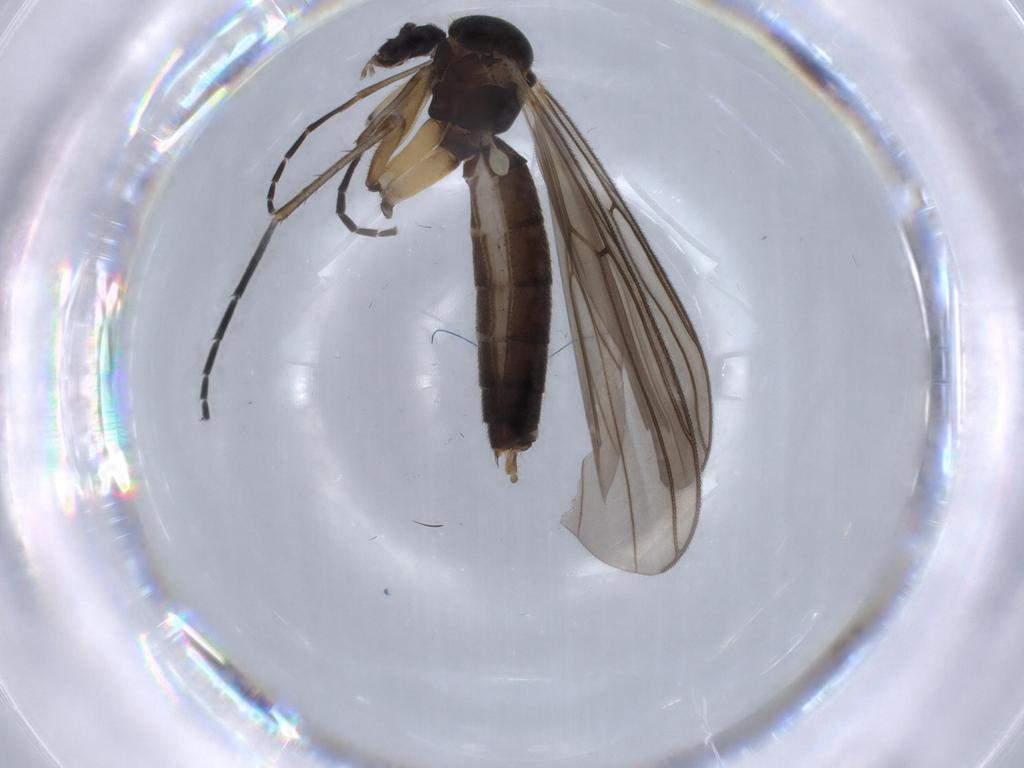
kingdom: Animalia
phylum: Arthropoda
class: Insecta
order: Diptera
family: Mycetophilidae
